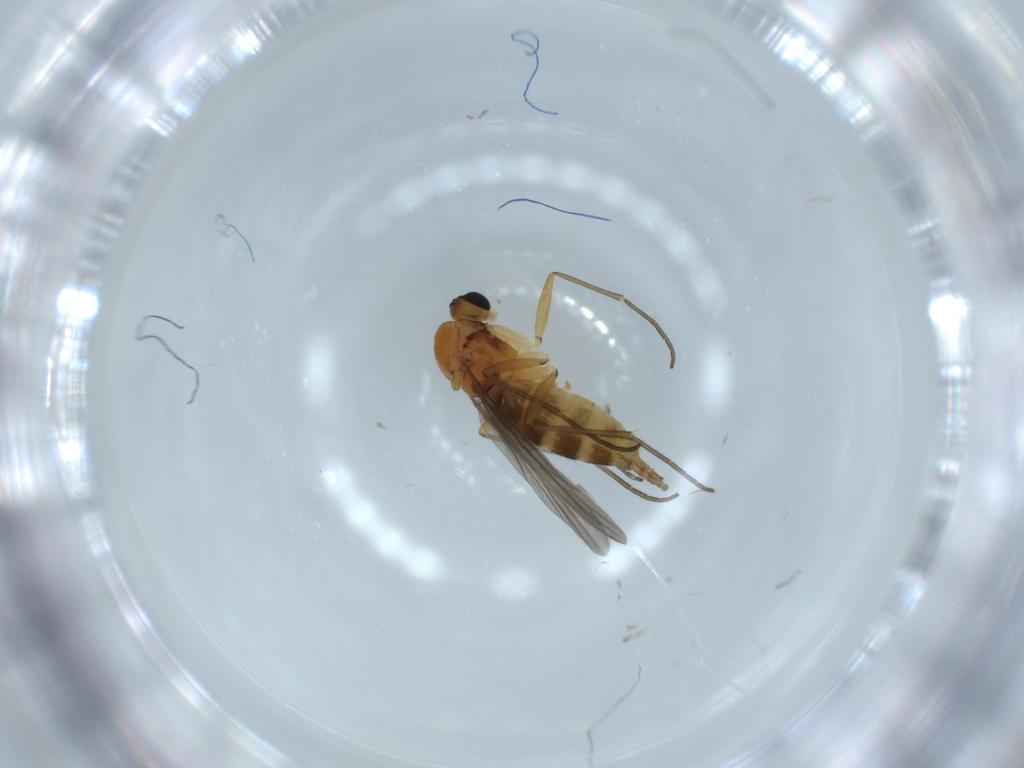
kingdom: Animalia
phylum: Arthropoda
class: Insecta
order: Diptera
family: Sciaridae
